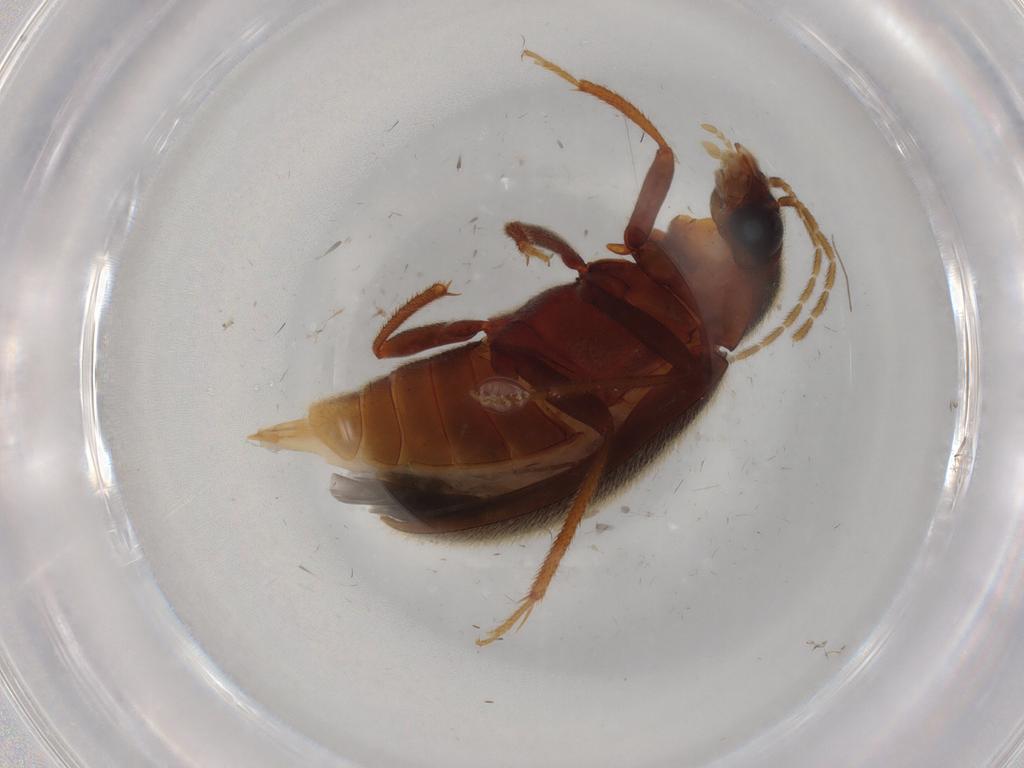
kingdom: Animalia
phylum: Arthropoda
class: Insecta
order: Coleoptera
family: Ptilodactylidae
